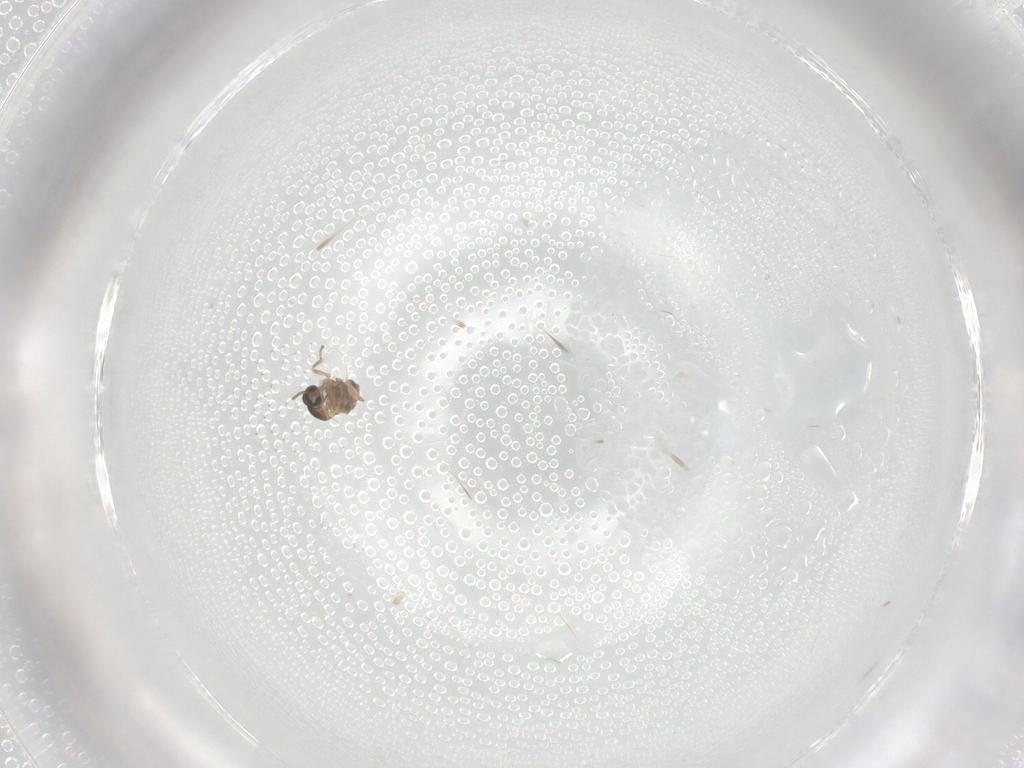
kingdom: Animalia
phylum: Arthropoda
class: Insecta
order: Diptera
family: Cecidomyiidae
